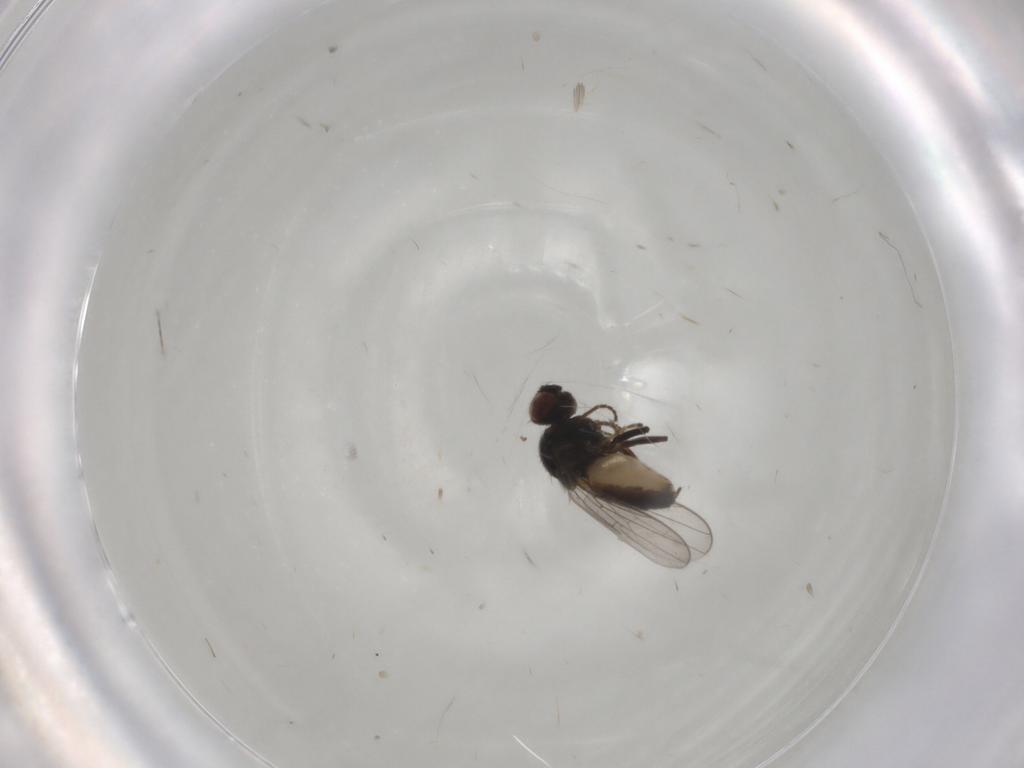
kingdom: Animalia
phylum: Arthropoda
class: Insecta
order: Diptera
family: Chloropidae
